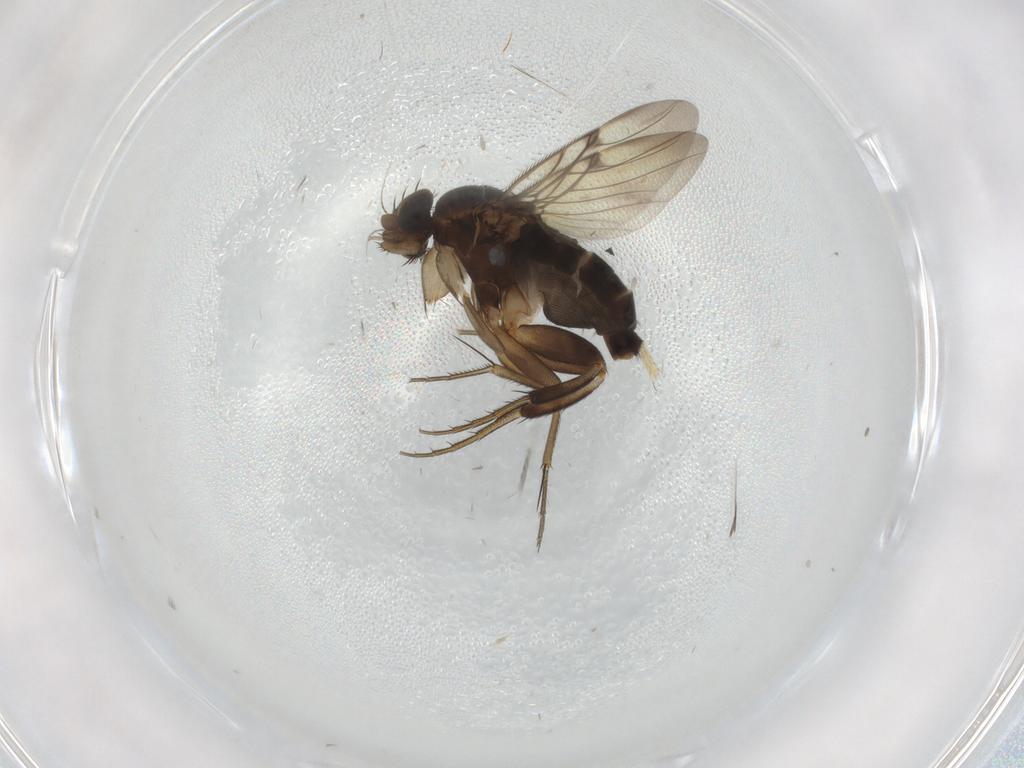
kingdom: Animalia
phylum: Arthropoda
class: Insecta
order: Diptera
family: Phoridae
